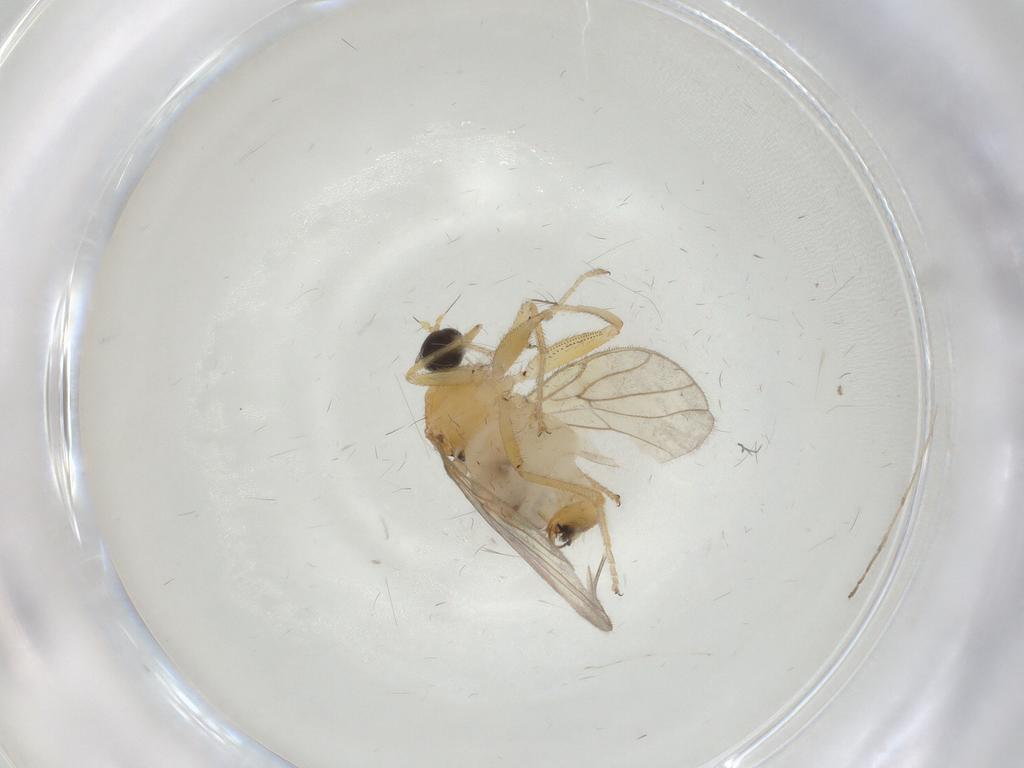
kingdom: Animalia
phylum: Arthropoda
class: Insecta
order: Diptera
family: Hybotidae
